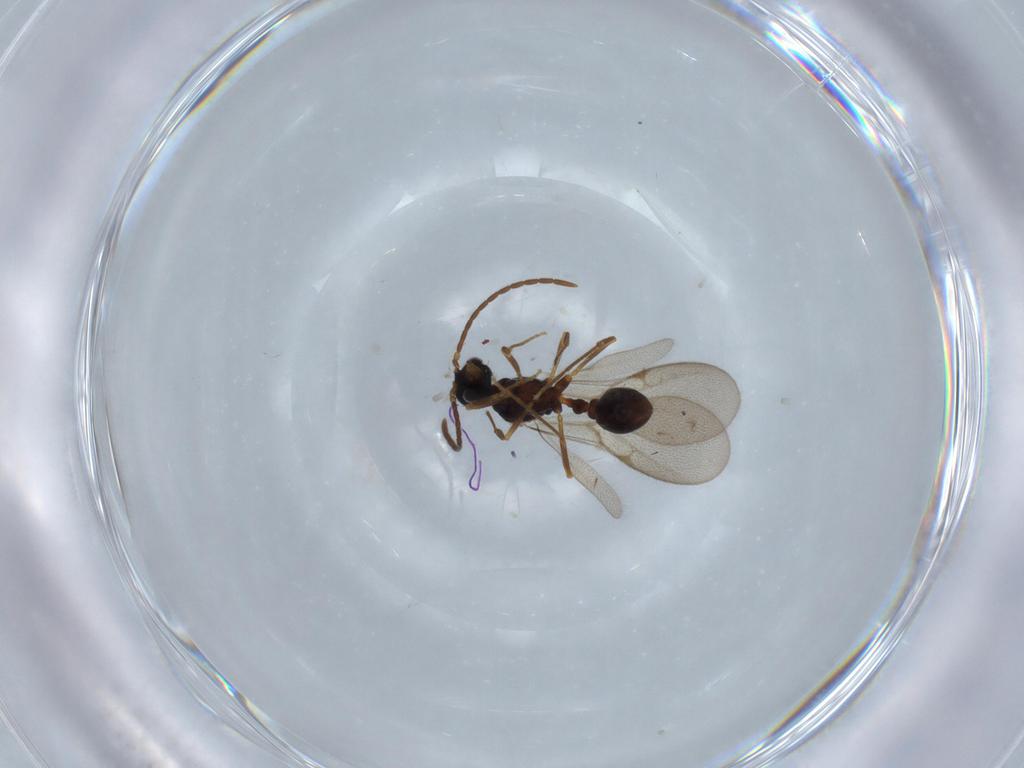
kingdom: Animalia
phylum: Arthropoda
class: Insecta
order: Hymenoptera
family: Formicidae
